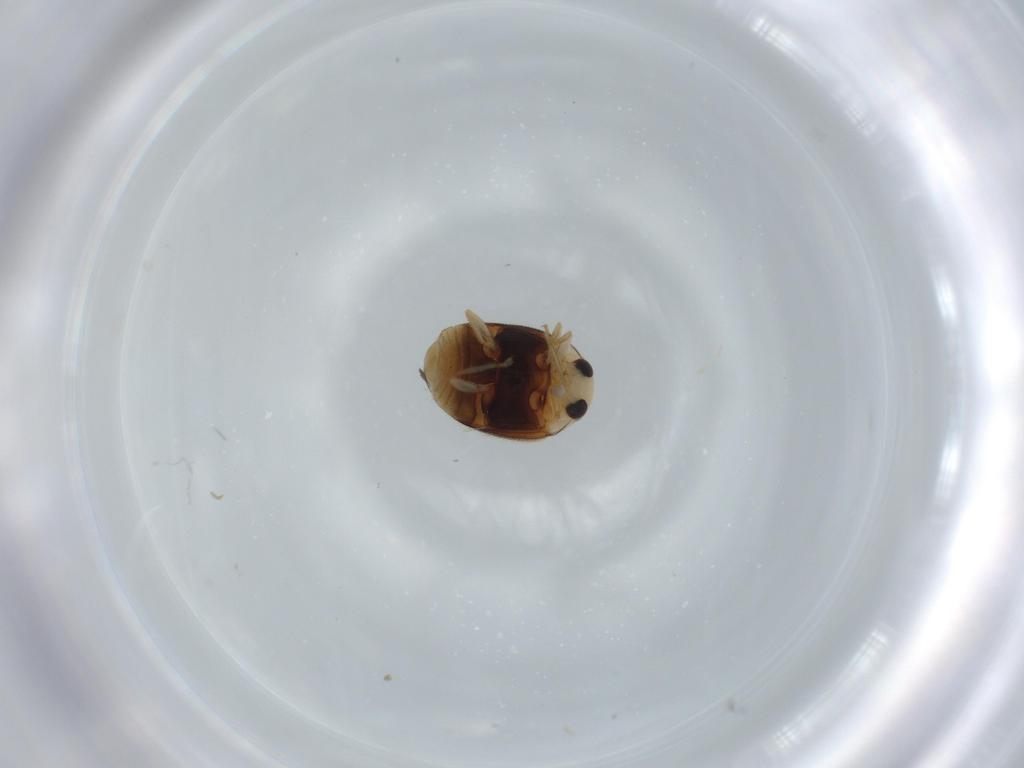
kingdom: Animalia
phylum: Arthropoda
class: Insecta
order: Coleoptera
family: Coccinellidae
